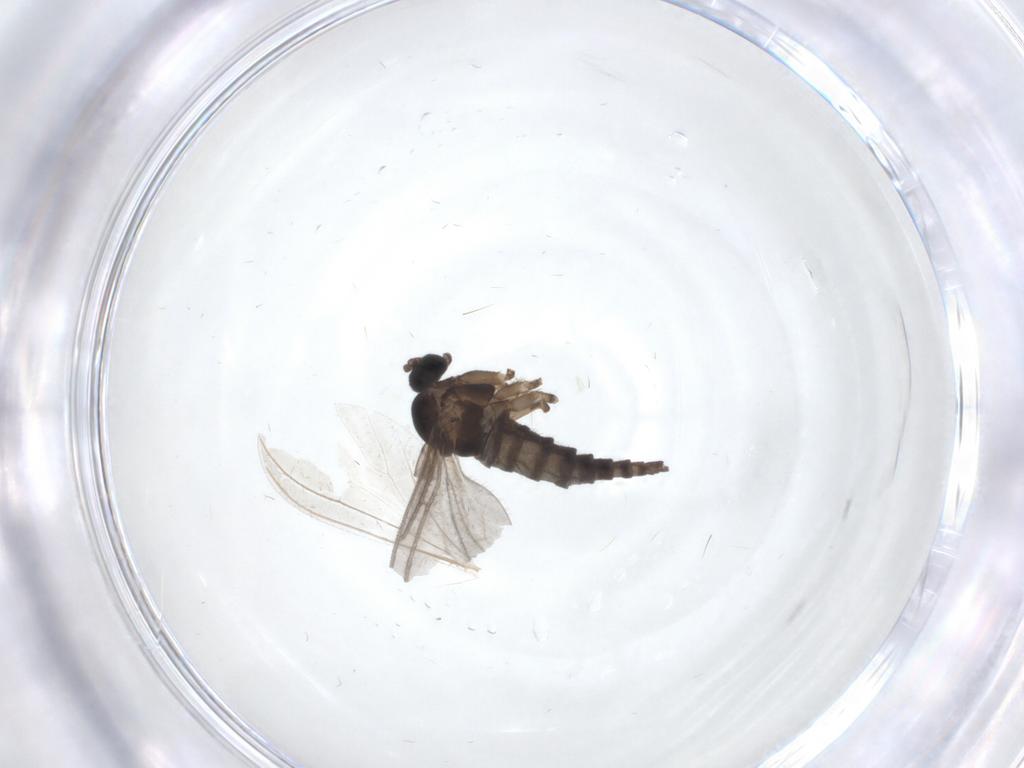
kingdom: Animalia
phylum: Arthropoda
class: Insecta
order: Diptera
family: Sciaridae
